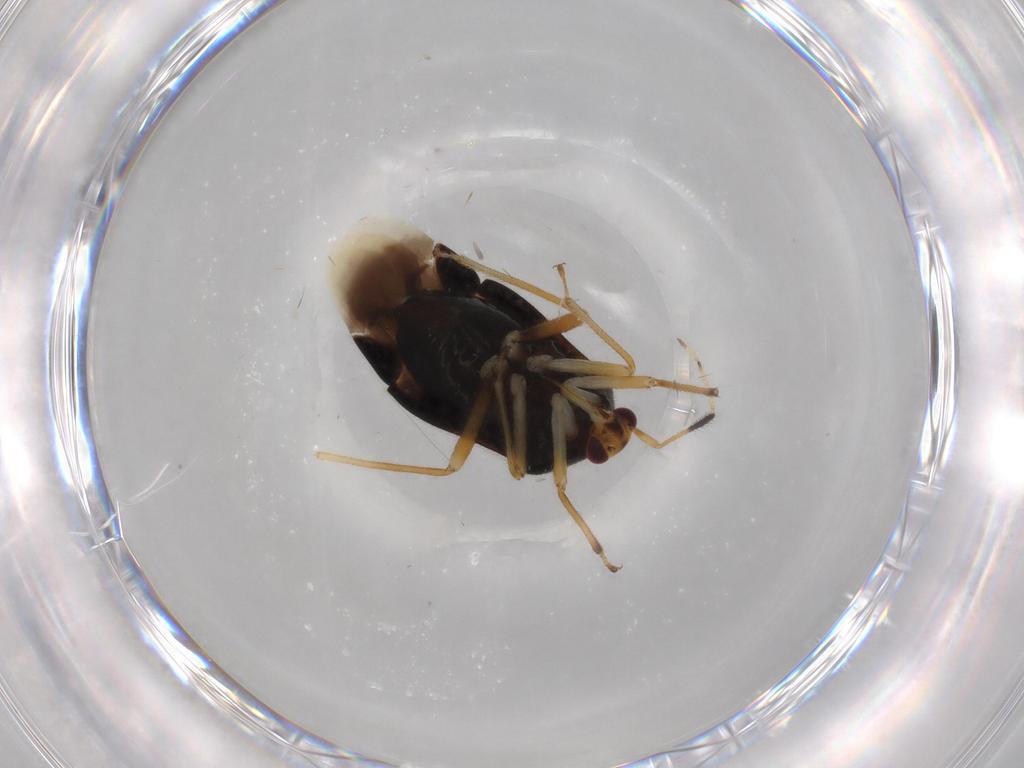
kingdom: Animalia
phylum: Arthropoda
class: Insecta
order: Hemiptera
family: Miridae
